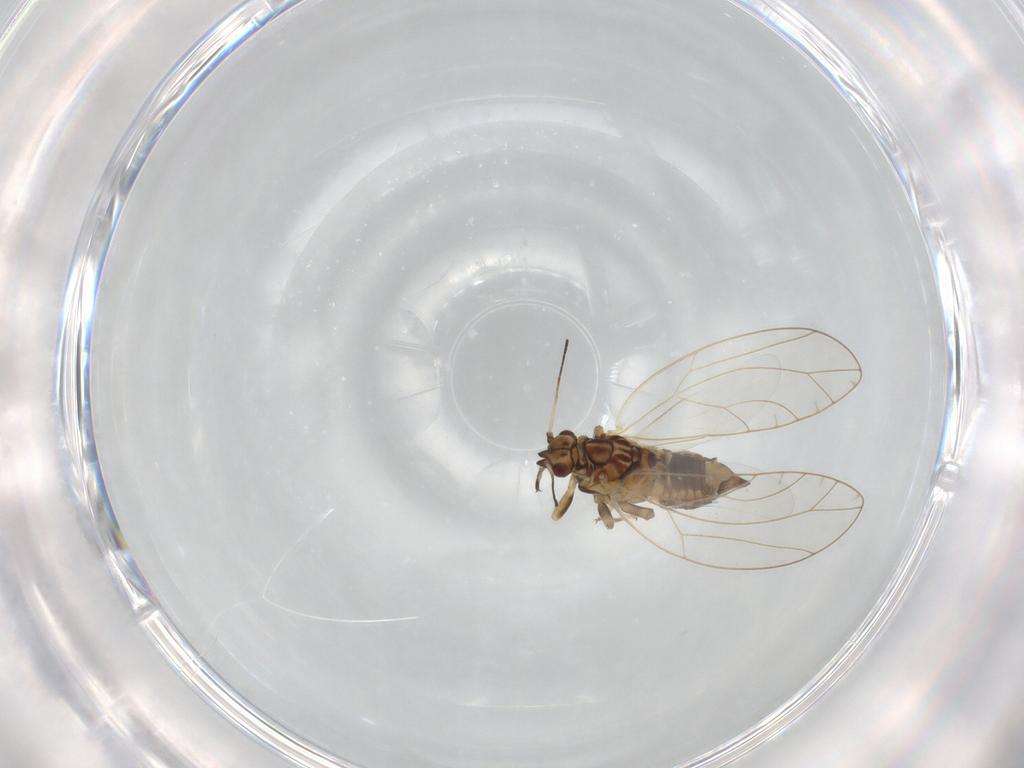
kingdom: Animalia
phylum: Arthropoda
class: Insecta
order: Hemiptera
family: Triozidae
